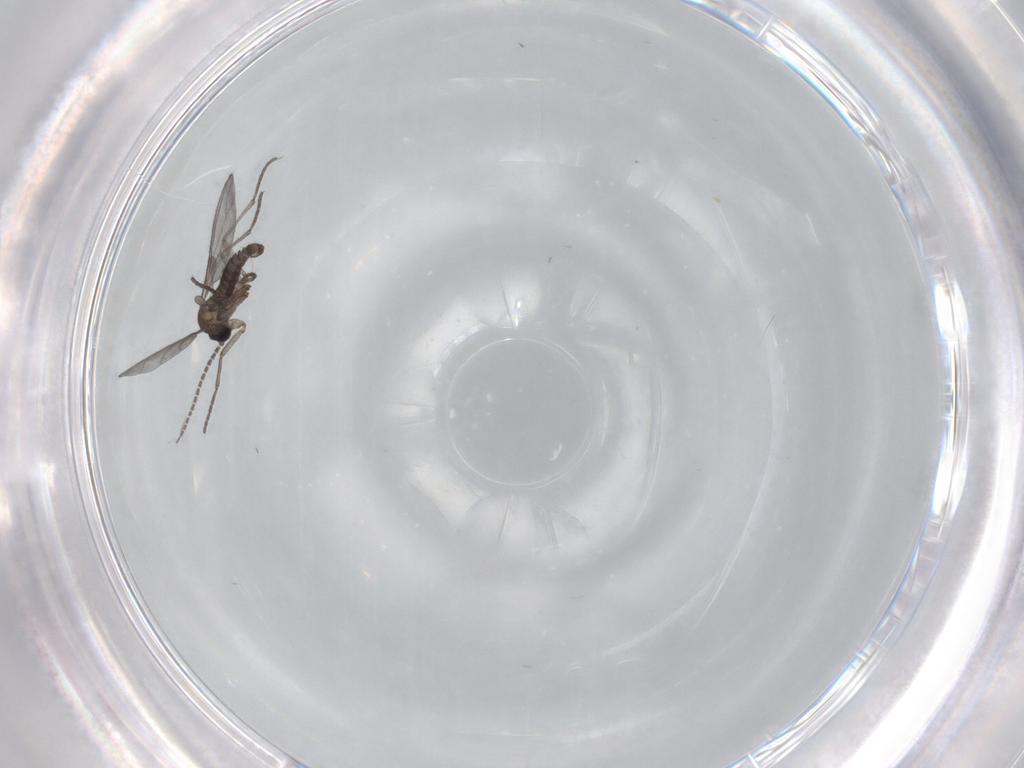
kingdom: Animalia
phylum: Arthropoda
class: Insecta
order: Diptera
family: Sciaridae
